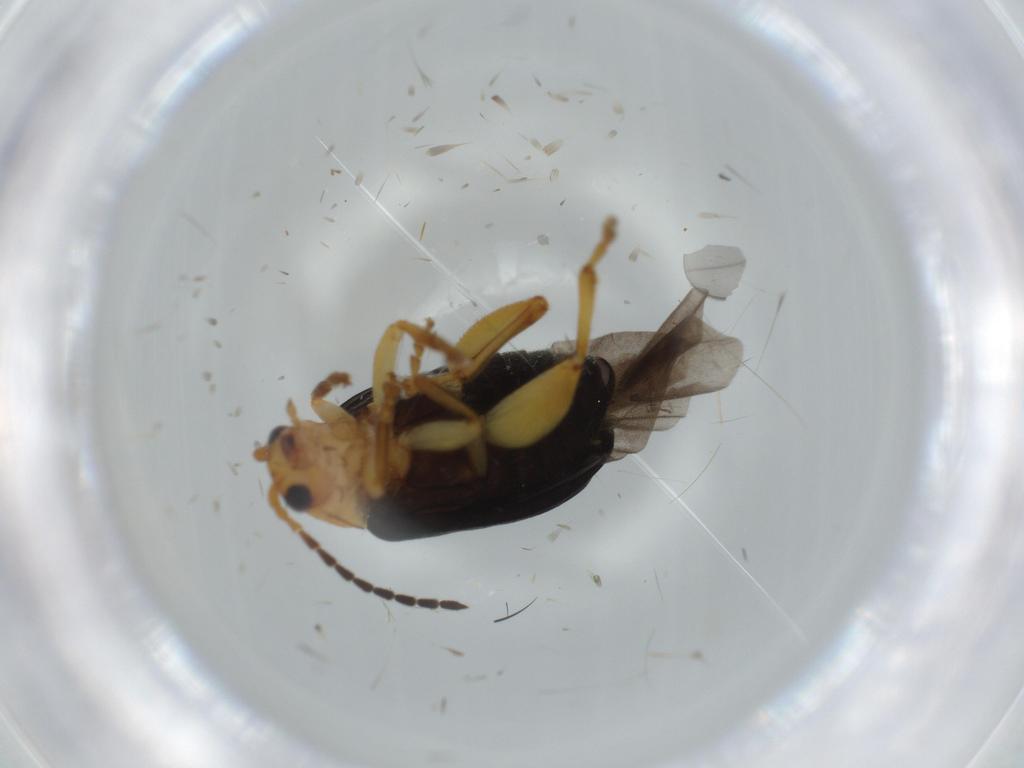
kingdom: Animalia
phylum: Arthropoda
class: Insecta
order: Coleoptera
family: Chrysomelidae
